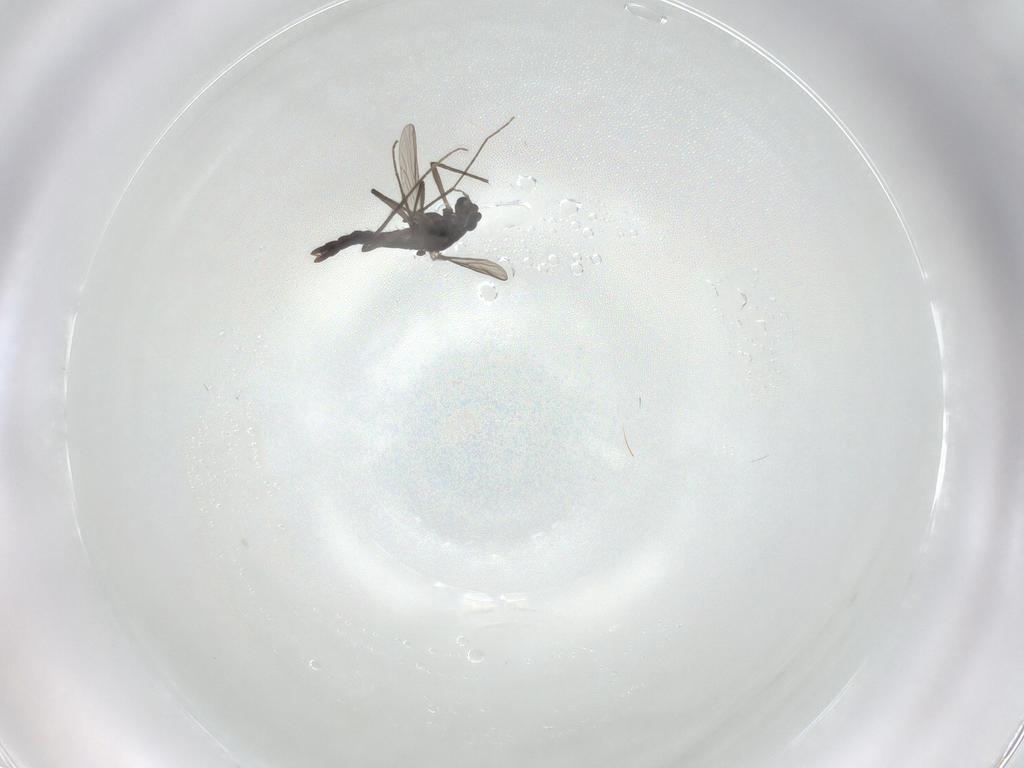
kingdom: Animalia
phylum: Arthropoda
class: Insecta
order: Diptera
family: Chironomidae
